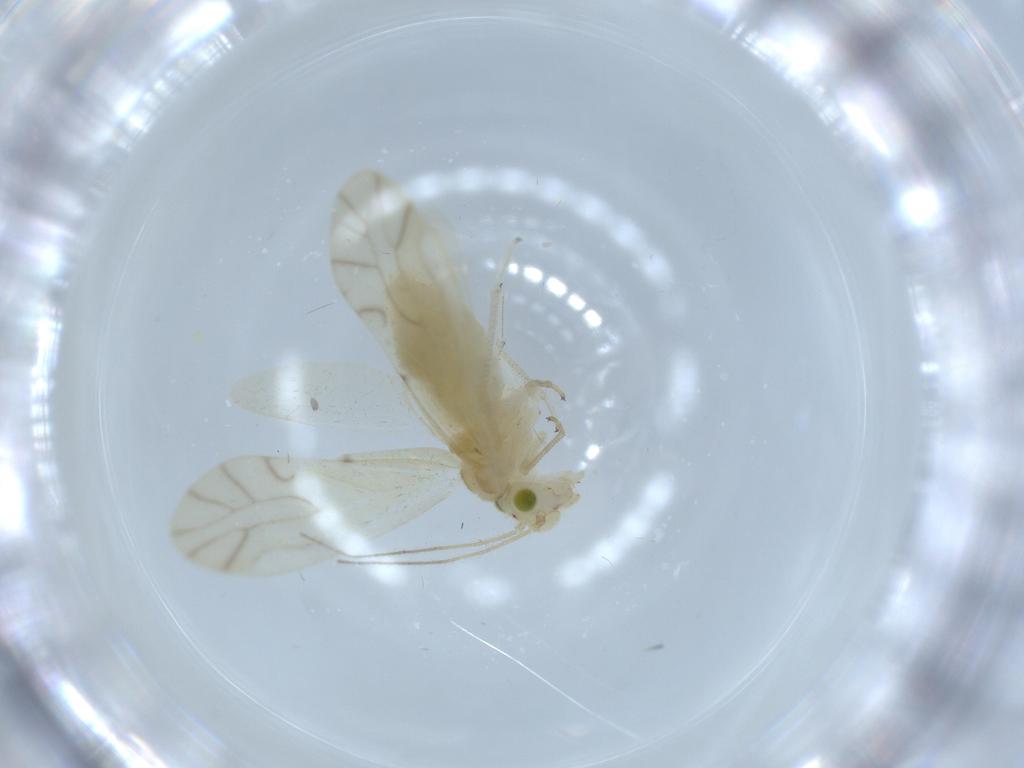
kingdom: Animalia
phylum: Arthropoda
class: Insecta
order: Psocodea
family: Caeciliusidae
